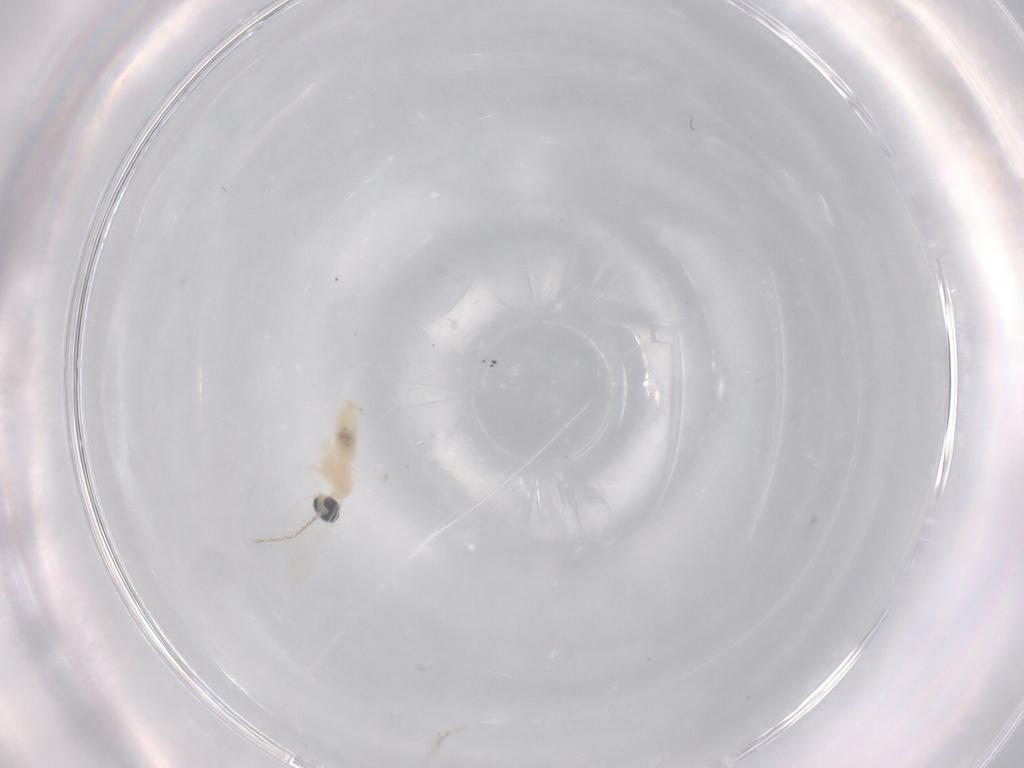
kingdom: Animalia
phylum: Arthropoda
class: Insecta
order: Diptera
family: Cecidomyiidae
